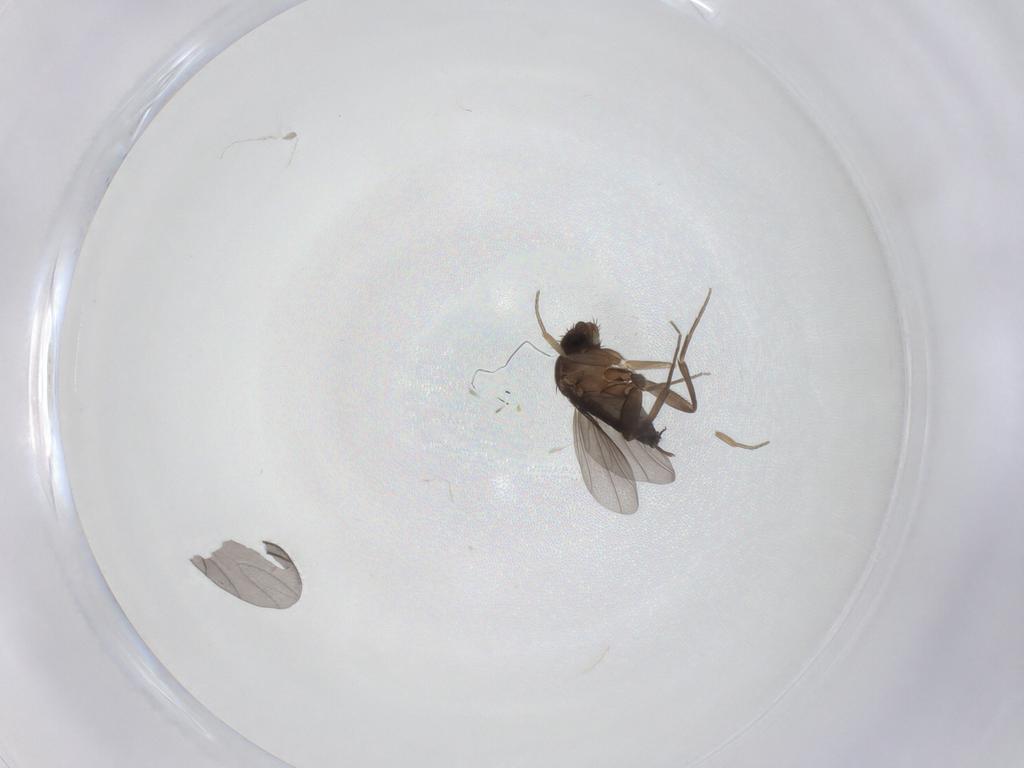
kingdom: Animalia
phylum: Arthropoda
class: Insecta
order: Diptera
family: Phoridae
